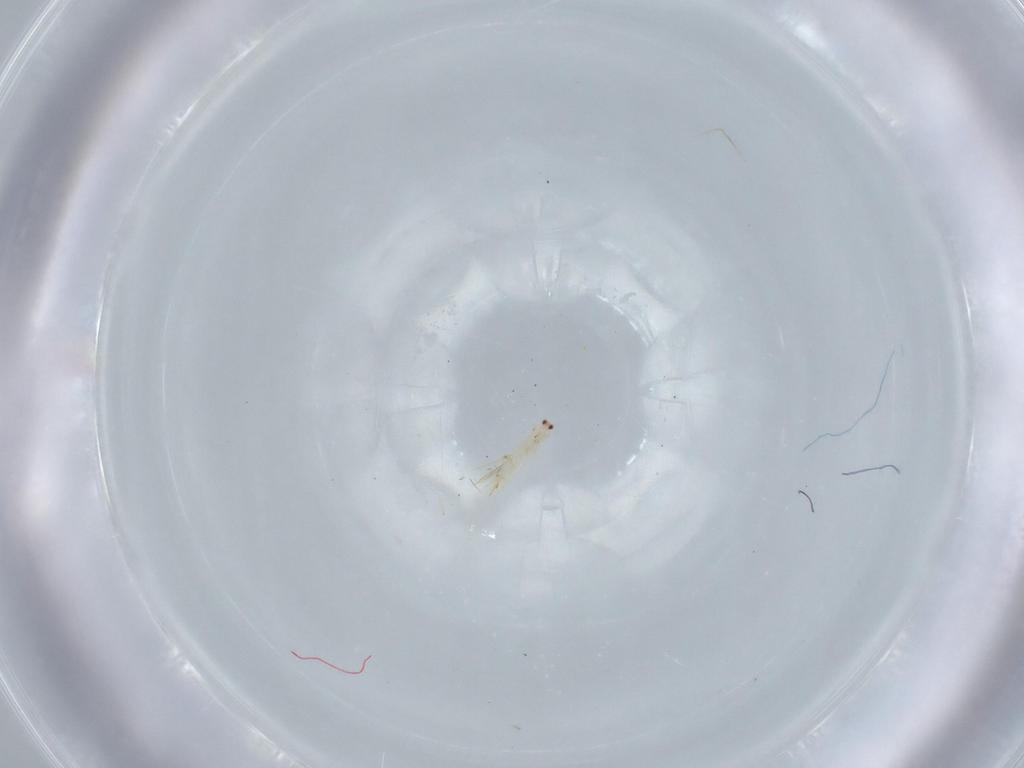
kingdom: Animalia
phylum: Arthropoda
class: Insecta
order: Thysanoptera
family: Thripidae
